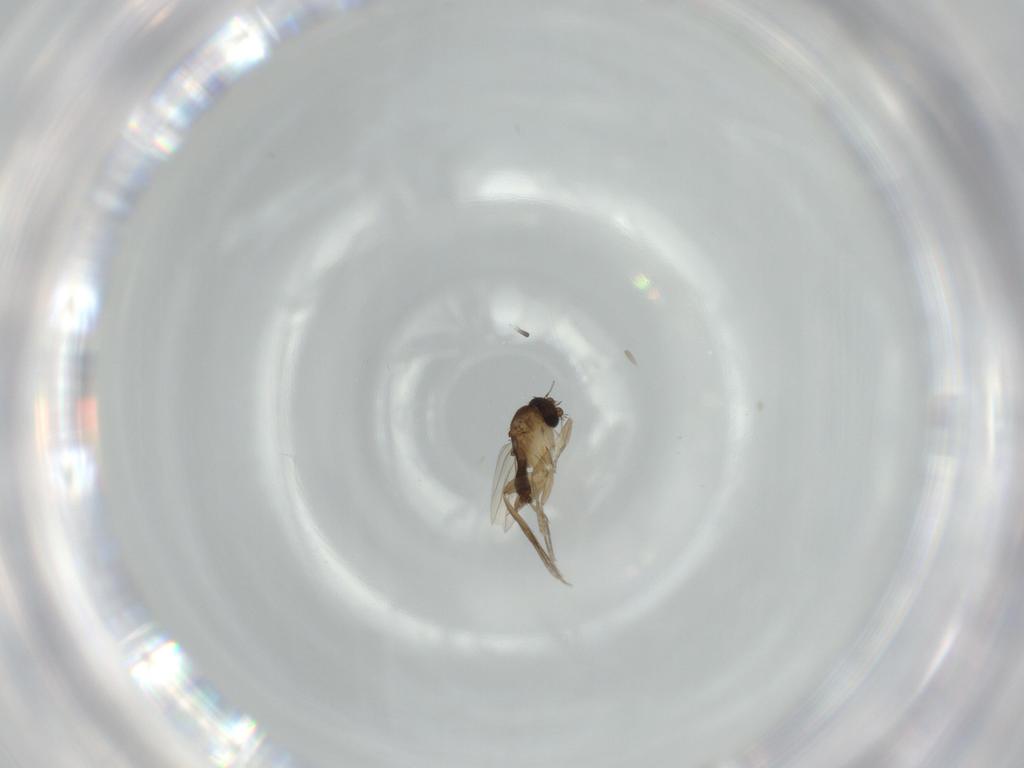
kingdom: Animalia
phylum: Arthropoda
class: Insecta
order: Diptera
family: Phoridae
